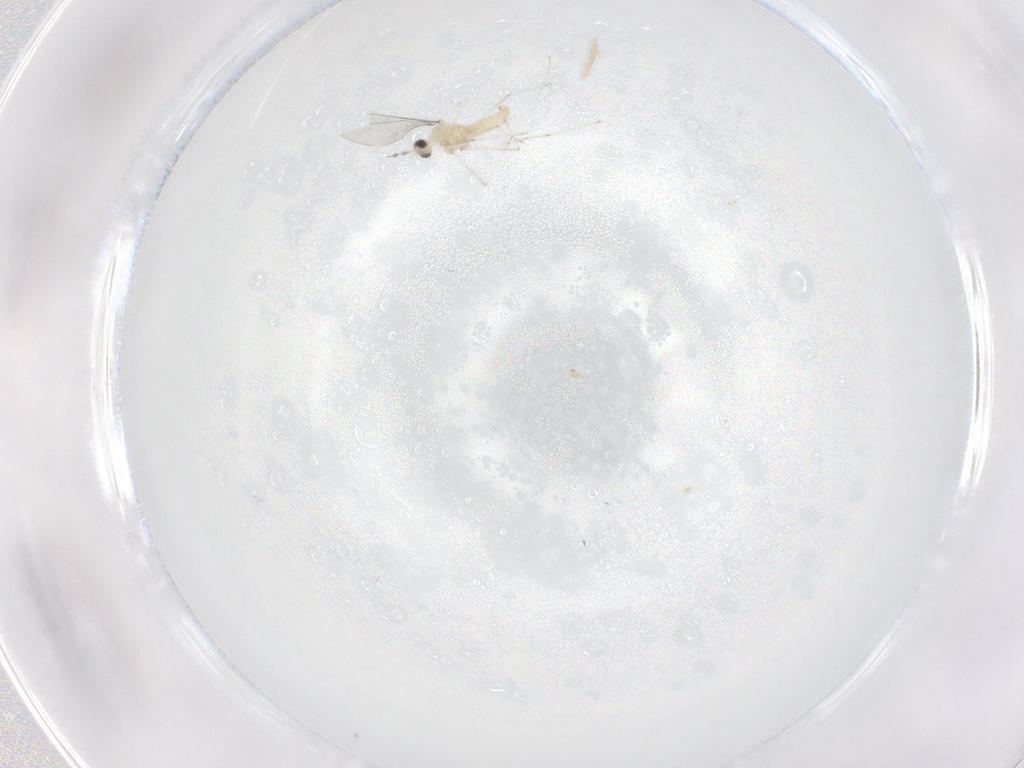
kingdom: Animalia
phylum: Arthropoda
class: Insecta
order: Diptera
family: Cecidomyiidae
